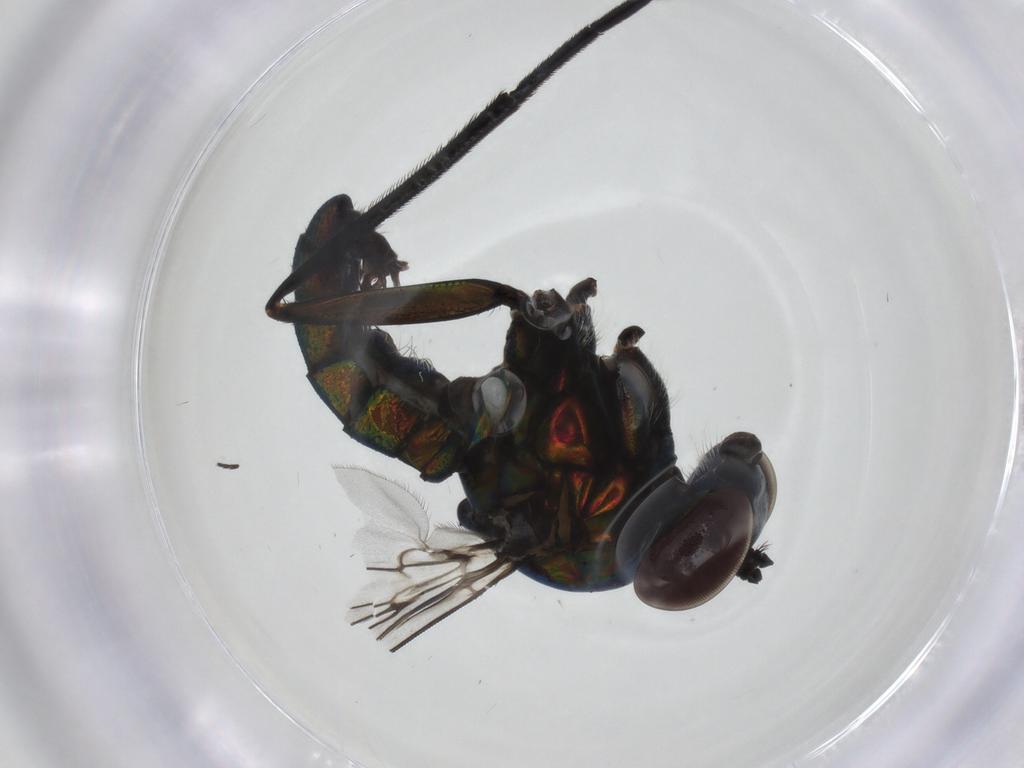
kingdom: Animalia
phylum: Arthropoda
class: Insecta
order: Diptera
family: Dolichopodidae
